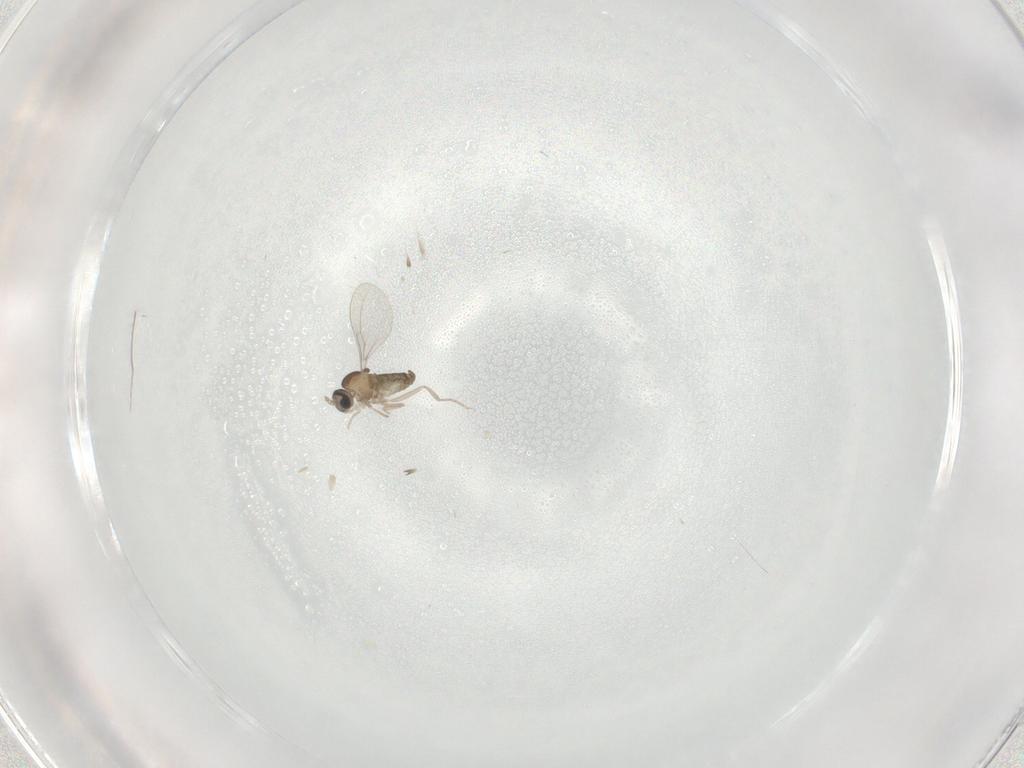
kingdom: Animalia
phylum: Arthropoda
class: Insecta
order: Diptera
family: Cecidomyiidae
